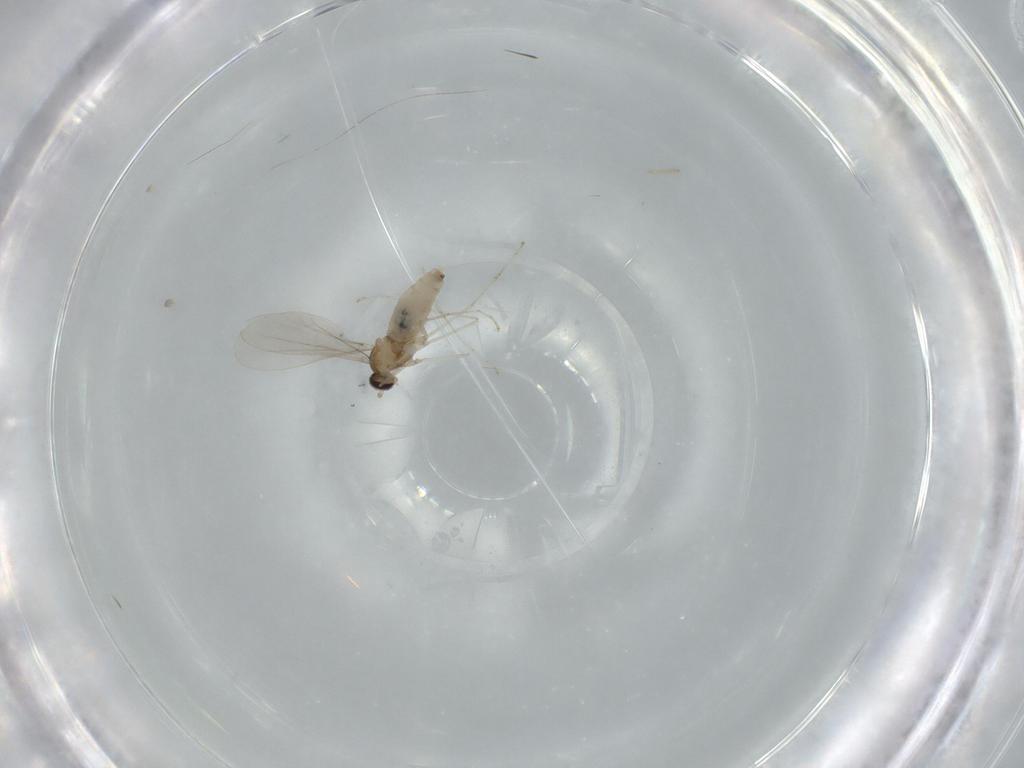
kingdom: Animalia
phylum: Arthropoda
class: Insecta
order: Diptera
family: Cecidomyiidae
